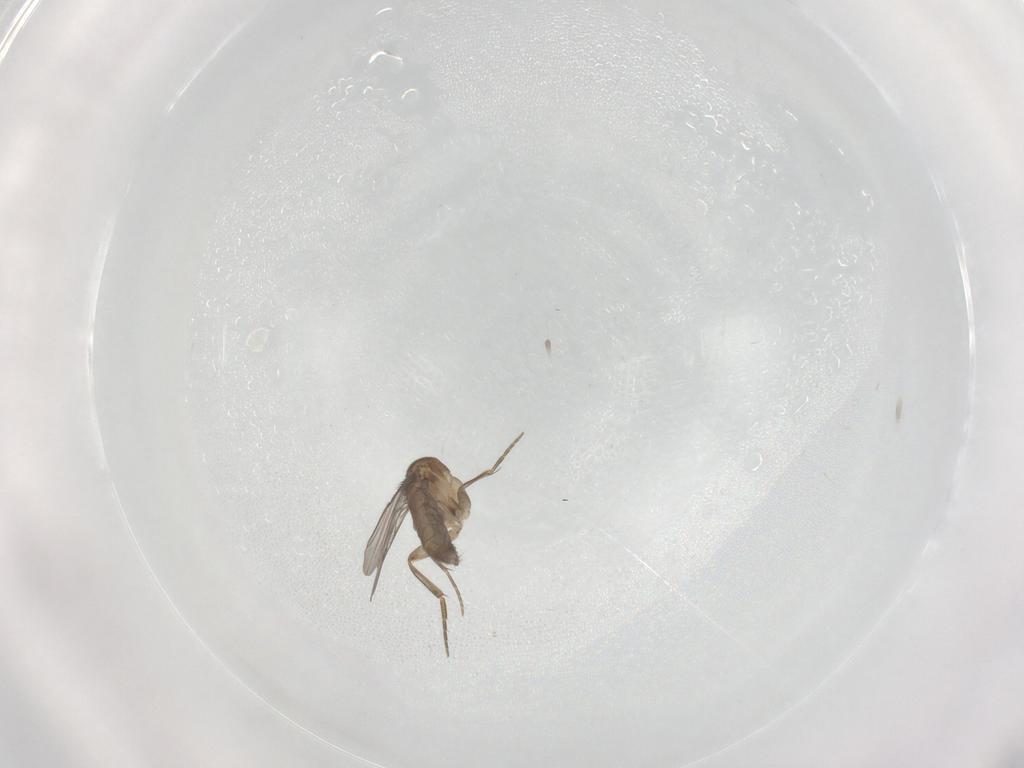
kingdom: Animalia
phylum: Arthropoda
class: Insecta
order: Diptera
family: Phoridae
